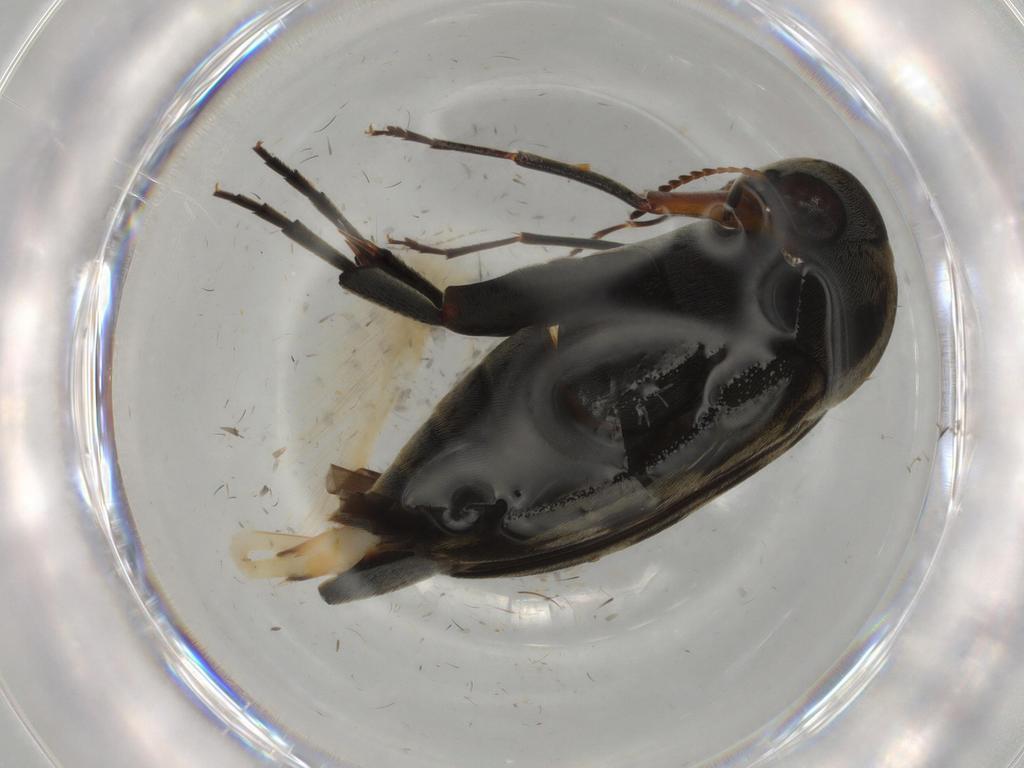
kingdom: Animalia
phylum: Arthropoda
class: Insecta
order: Coleoptera
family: Mordellidae
